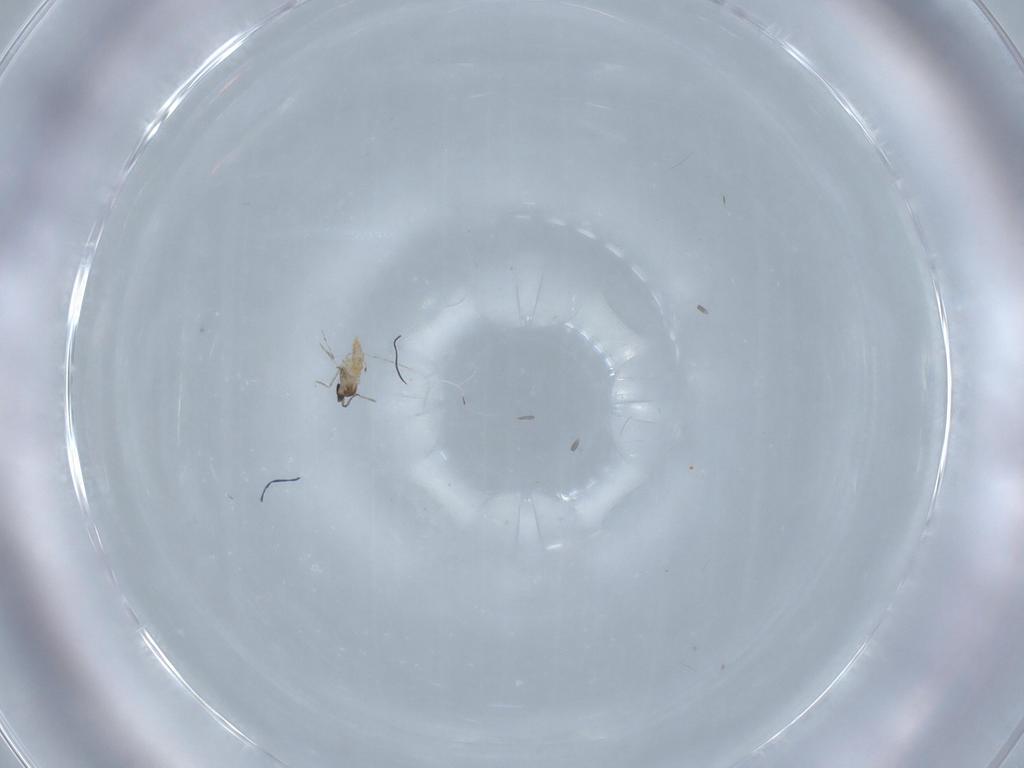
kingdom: Animalia
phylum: Arthropoda
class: Insecta
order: Diptera
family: Cecidomyiidae
